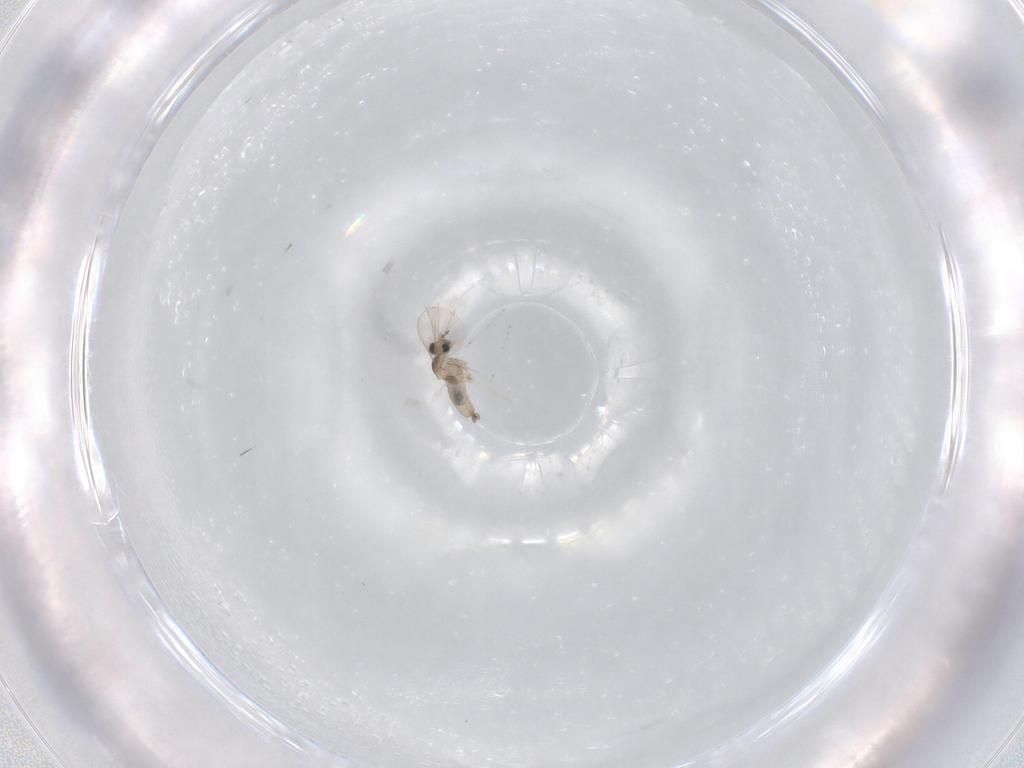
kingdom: Animalia
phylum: Arthropoda
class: Insecta
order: Diptera
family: Cecidomyiidae
